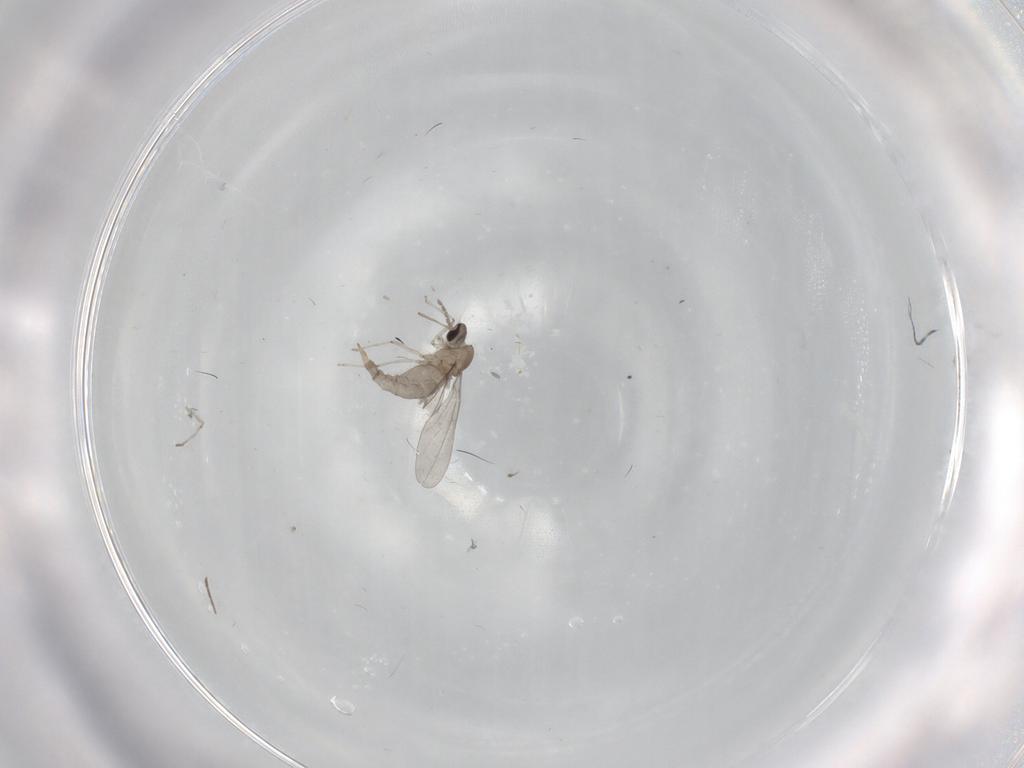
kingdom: Animalia
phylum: Arthropoda
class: Insecta
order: Diptera
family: Cecidomyiidae
